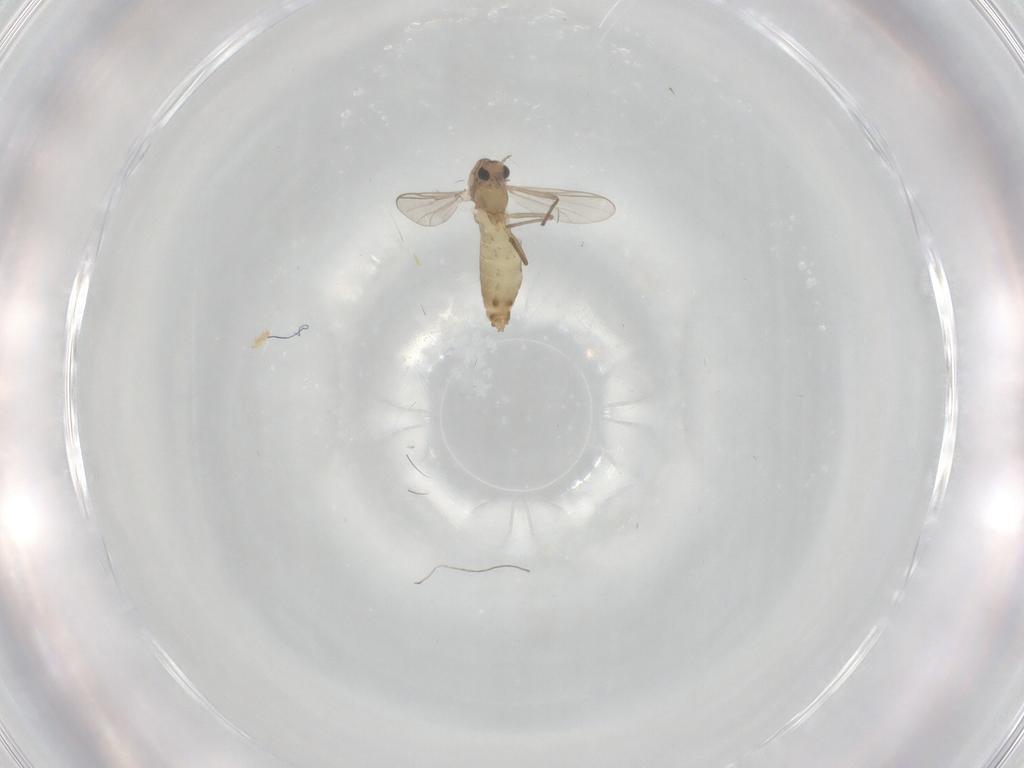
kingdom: Animalia
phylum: Arthropoda
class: Insecta
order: Diptera
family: Chironomidae
